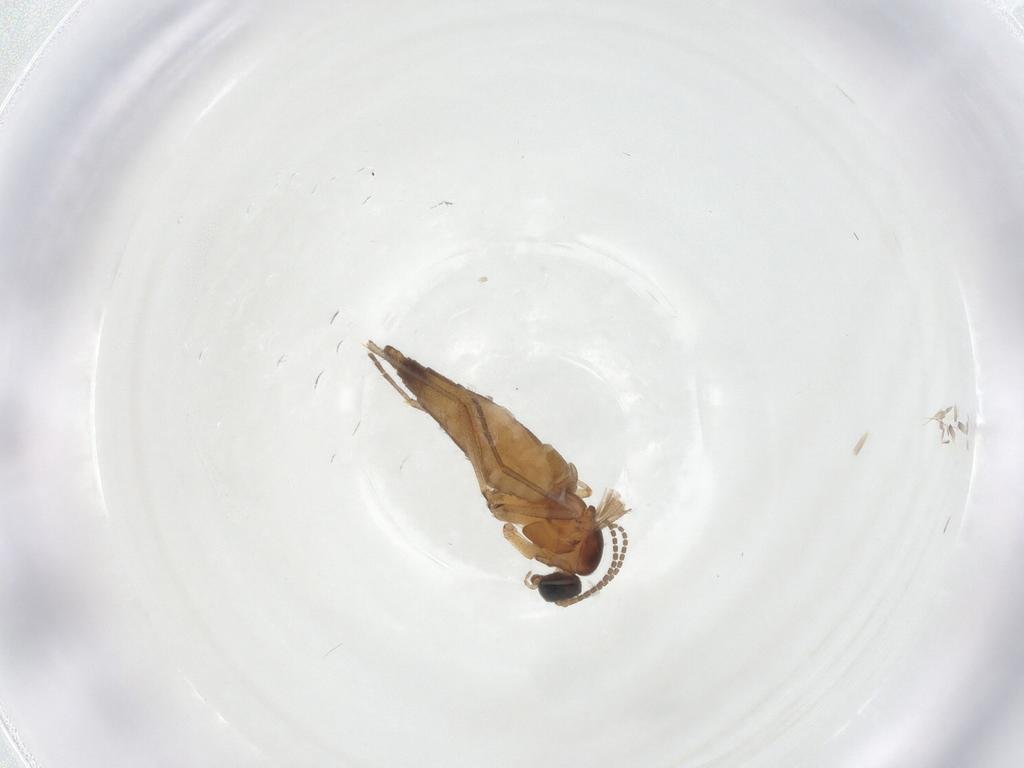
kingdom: Animalia
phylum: Arthropoda
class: Insecta
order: Diptera
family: Sciaridae
